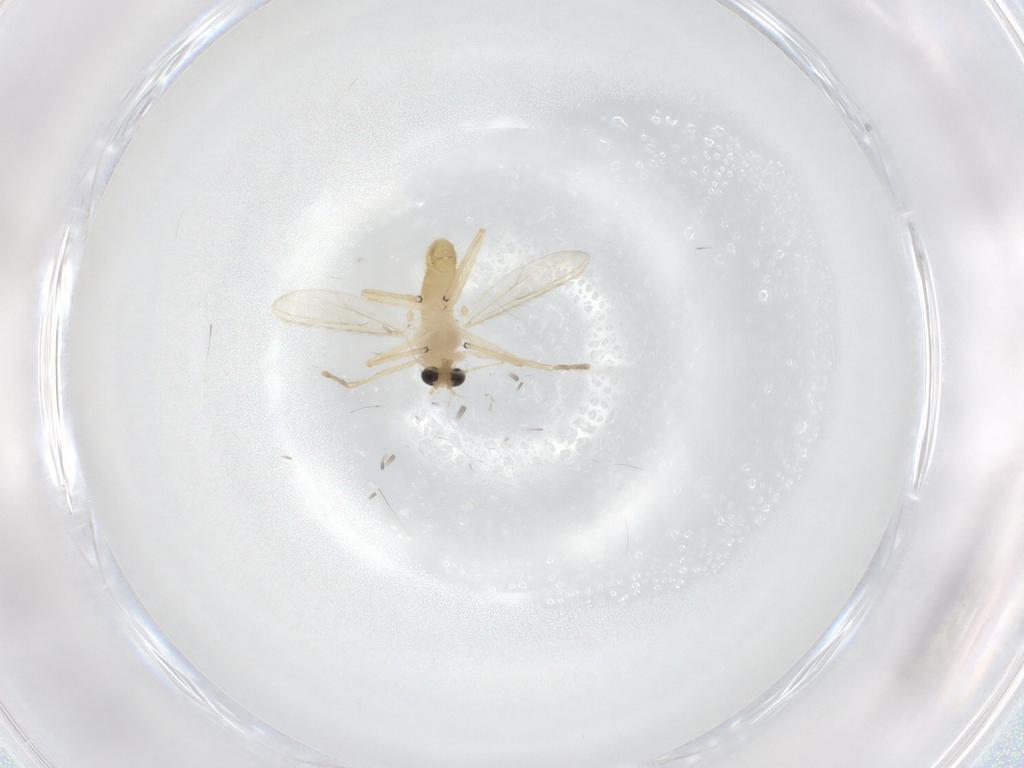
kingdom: Animalia
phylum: Arthropoda
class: Insecta
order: Diptera
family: Chironomidae
